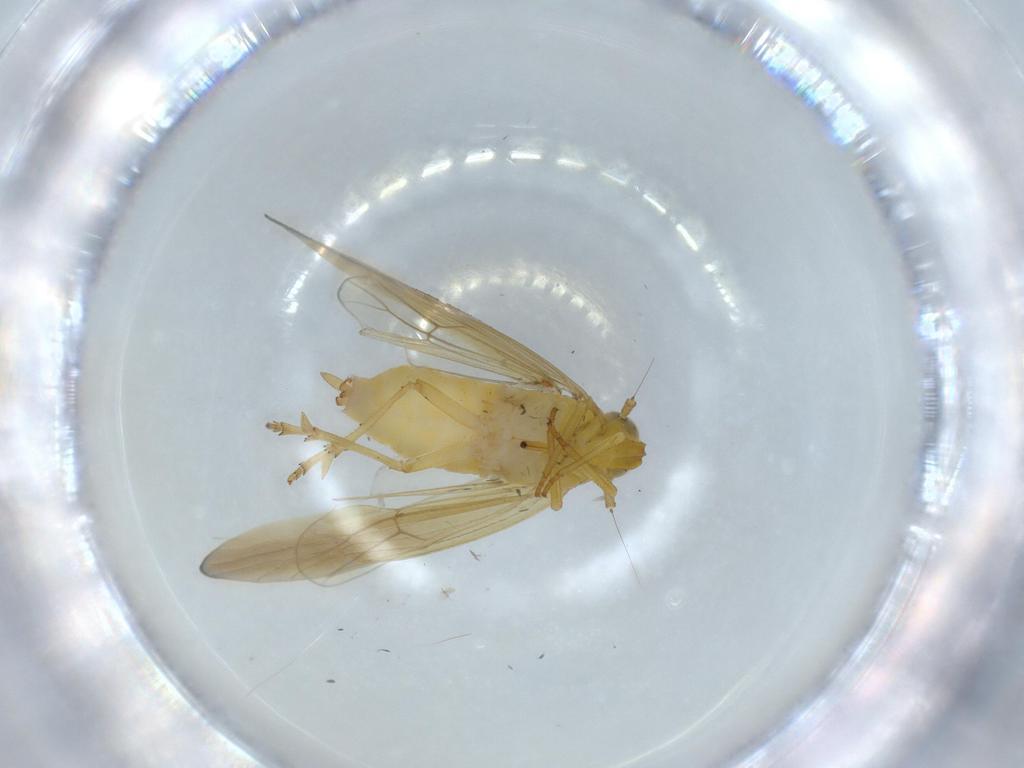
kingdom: Animalia
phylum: Arthropoda
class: Insecta
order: Hemiptera
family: Delphacidae
